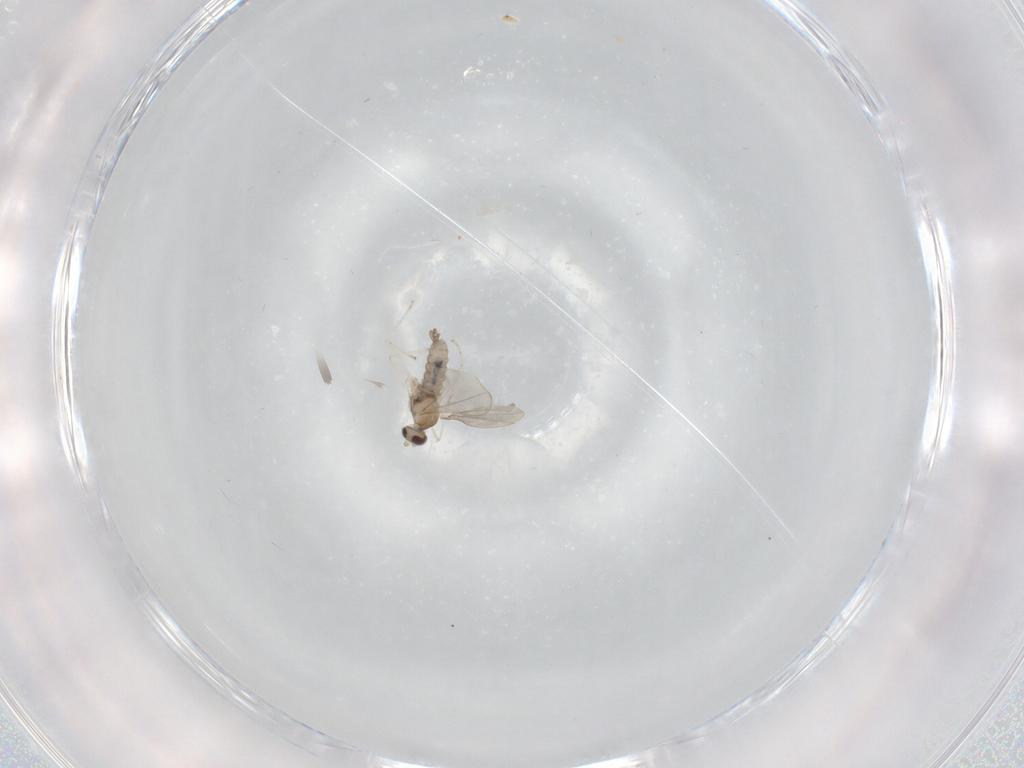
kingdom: Animalia
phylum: Arthropoda
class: Insecta
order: Diptera
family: Cecidomyiidae
